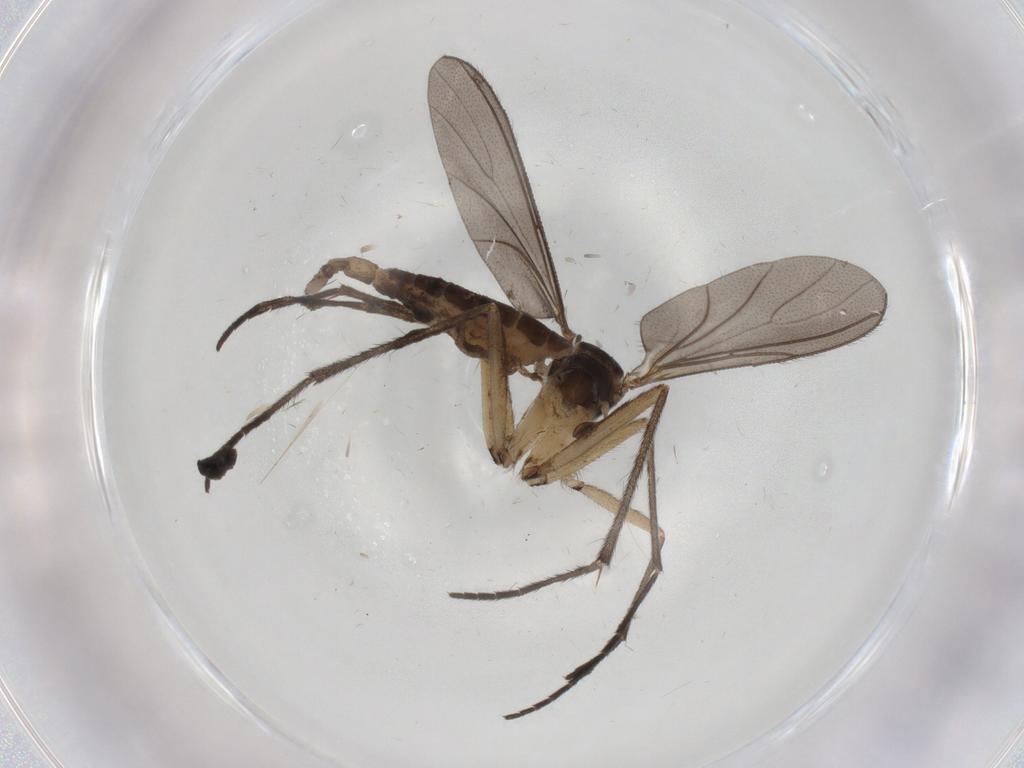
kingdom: Animalia
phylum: Arthropoda
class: Insecta
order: Diptera
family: Sciaridae
